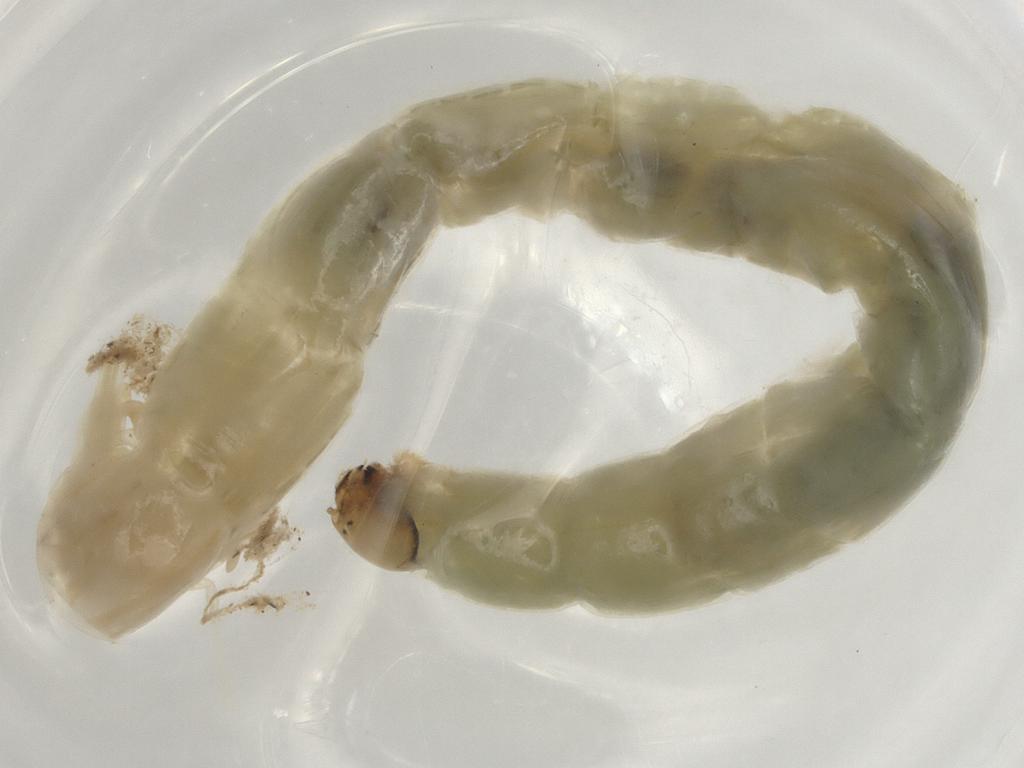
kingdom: Animalia
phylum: Arthropoda
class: Insecta
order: Diptera
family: Chironomidae
